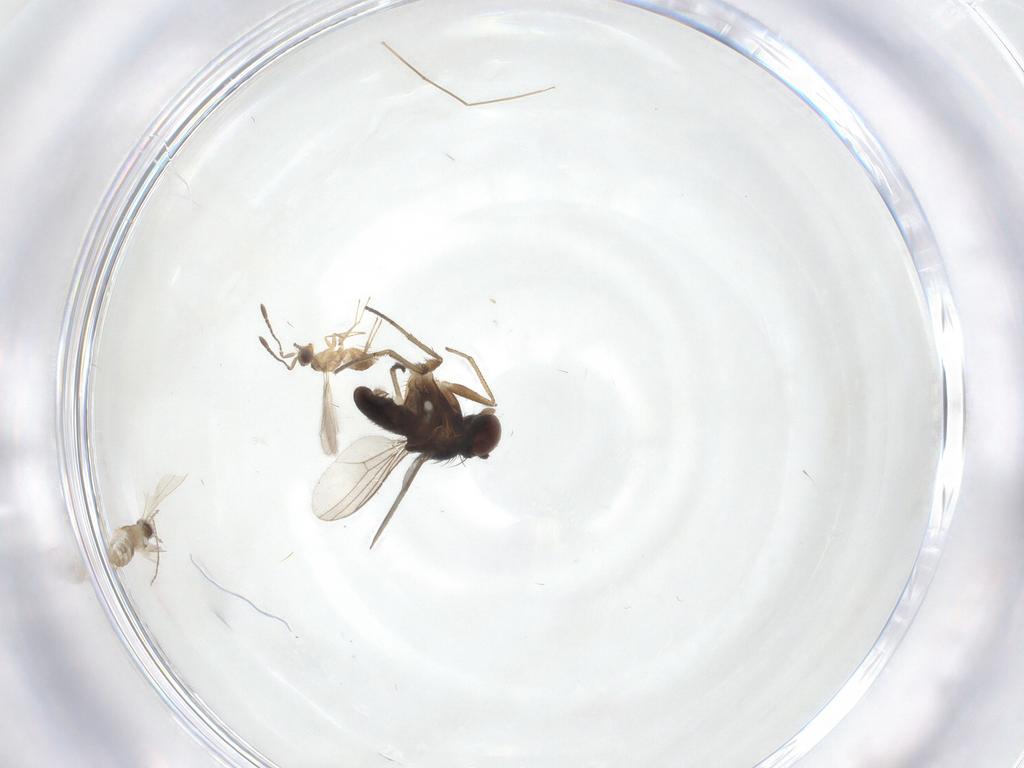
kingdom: Animalia
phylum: Arthropoda
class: Insecta
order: Diptera
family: Dolichopodidae
